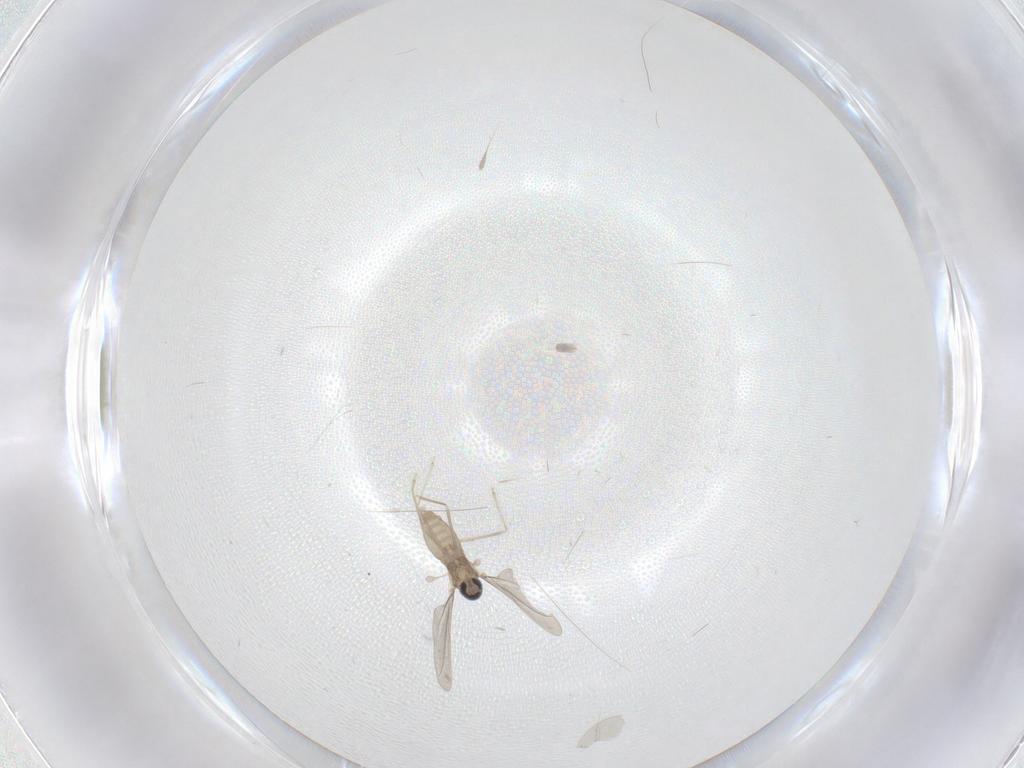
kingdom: Animalia
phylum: Arthropoda
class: Insecta
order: Diptera
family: Cecidomyiidae
